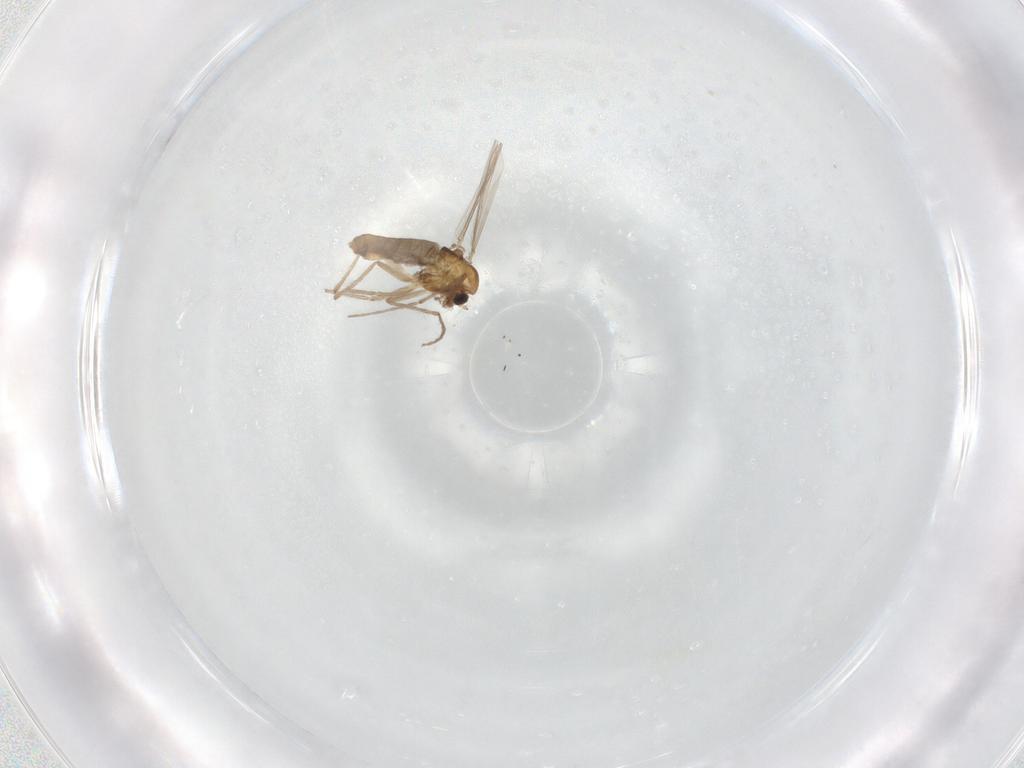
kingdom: Animalia
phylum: Arthropoda
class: Insecta
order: Diptera
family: Chironomidae
